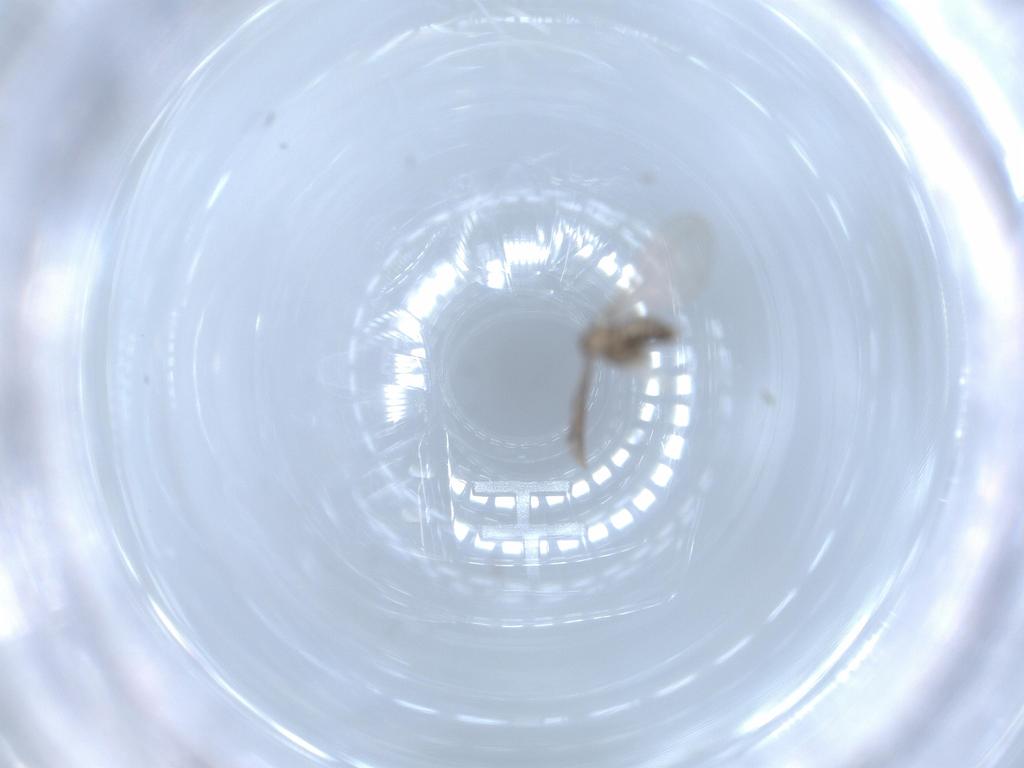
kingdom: Animalia
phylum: Arthropoda
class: Insecta
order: Diptera
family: Cecidomyiidae
